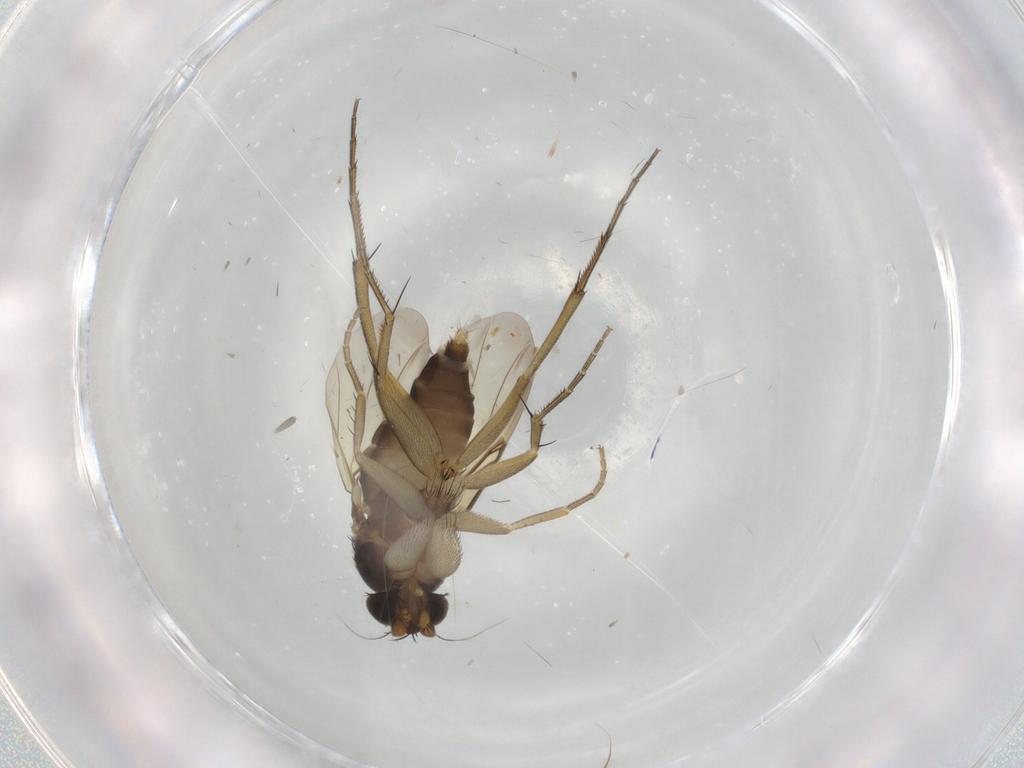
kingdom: Animalia
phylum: Arthropoda
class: Insecta
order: Diptera
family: Phoridae
